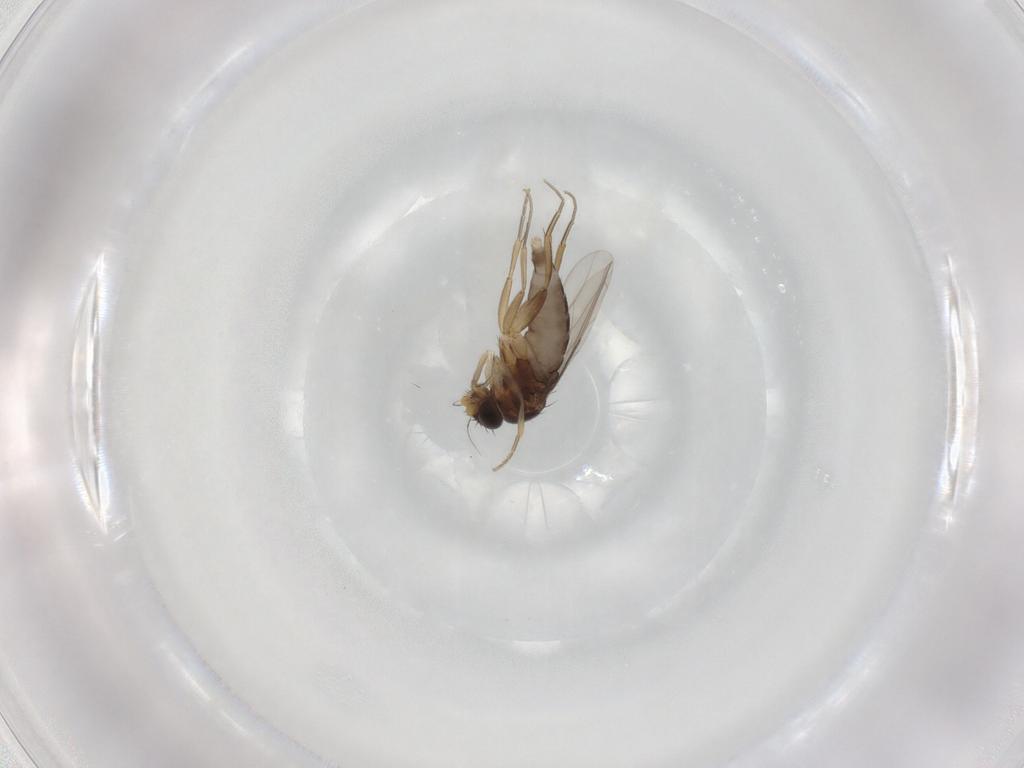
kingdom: Animalia
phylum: Arthropoda
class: Insecta
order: Diptera
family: Phoridae
